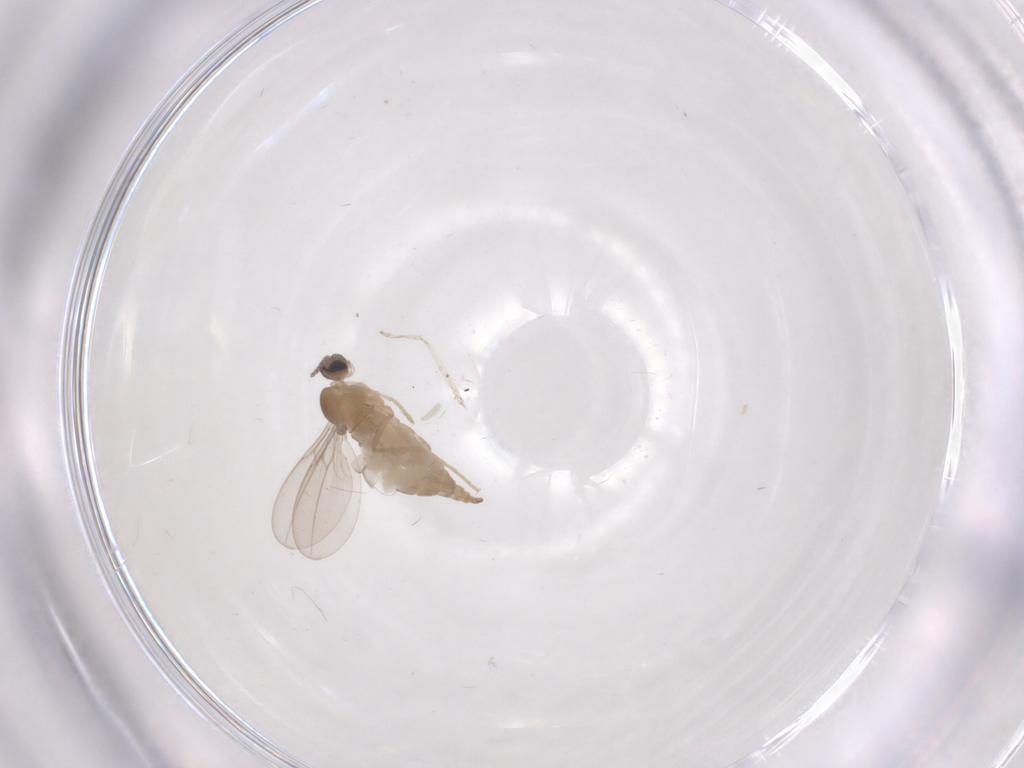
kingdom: Animalia
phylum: Arthropoda
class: Insecta
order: Diptera
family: Cecidomyiidae
